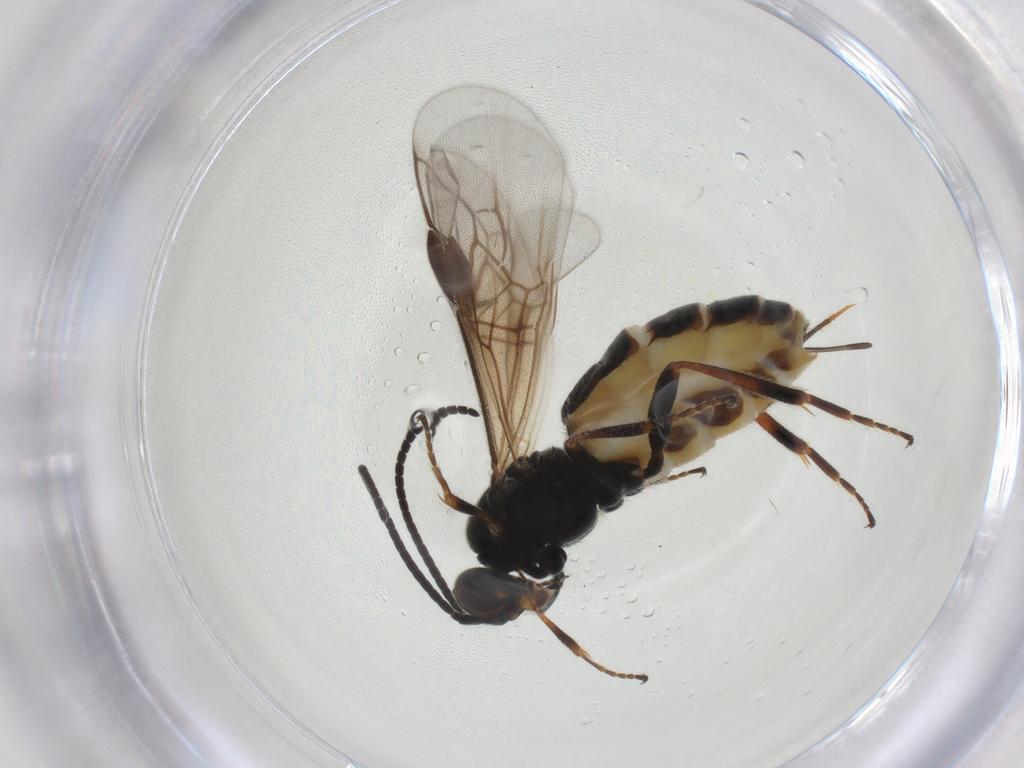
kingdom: Animalia
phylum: Arthropoda
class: Insecta
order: Hymenoptera
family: Braconidae
